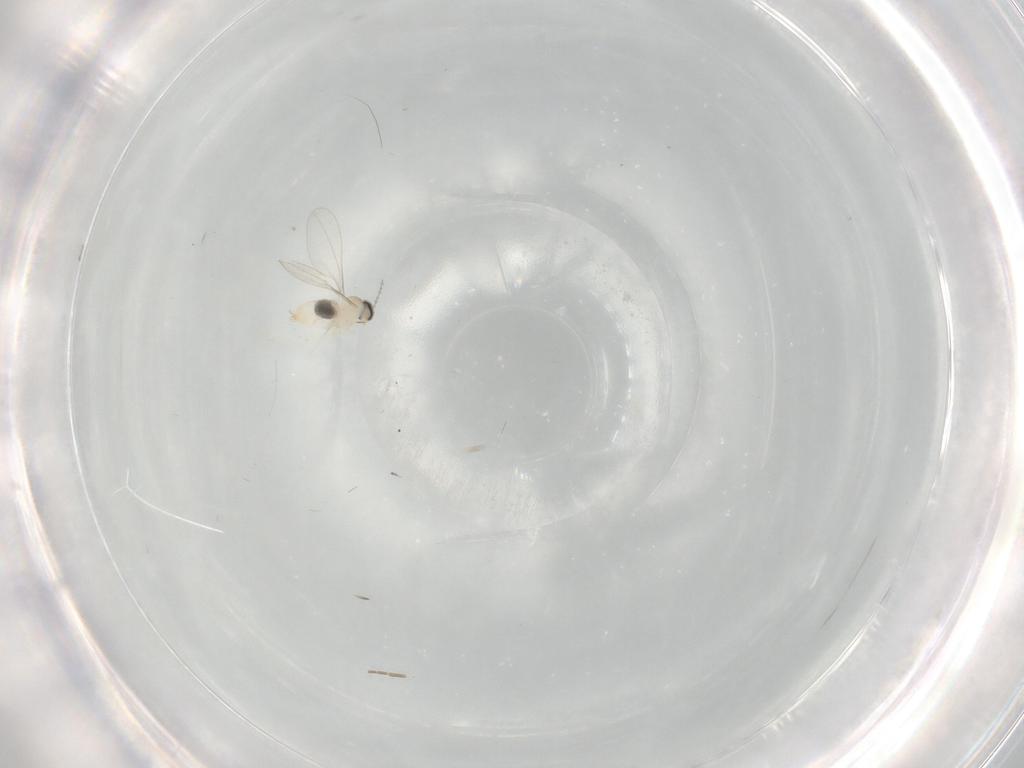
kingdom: Animalia
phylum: Arthropoda
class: Insecta
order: Diptera
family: Cecidomyiidae
